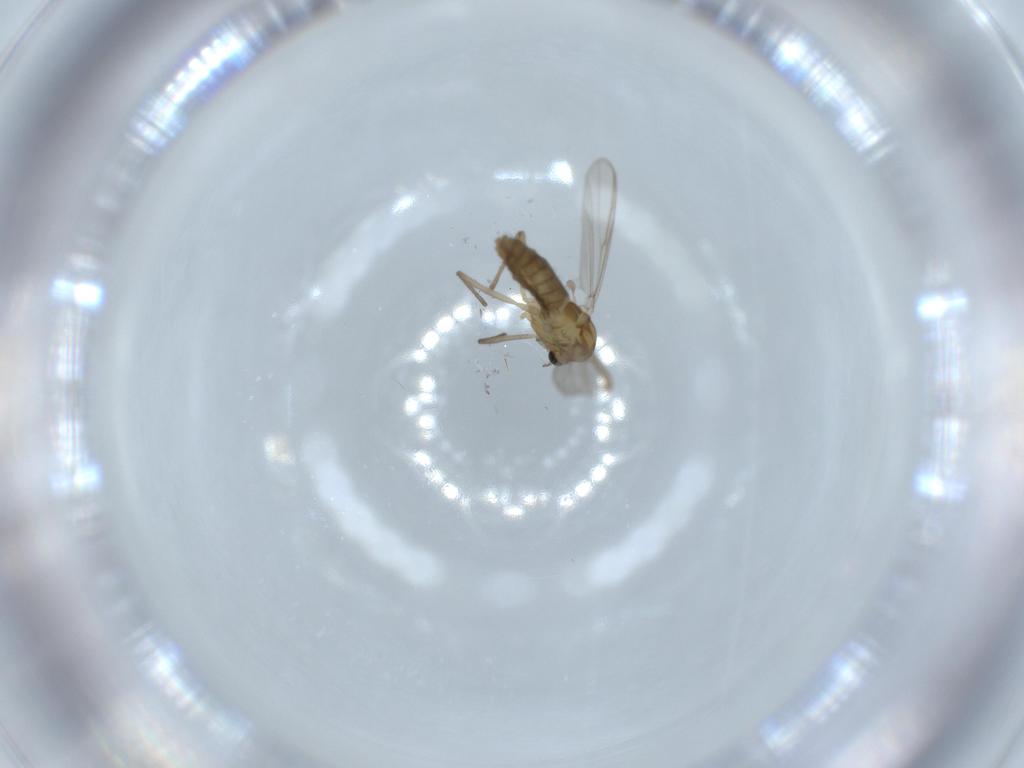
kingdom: Animalia
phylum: Arthropoda
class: Insecta
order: Diptera
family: Chironomidae
